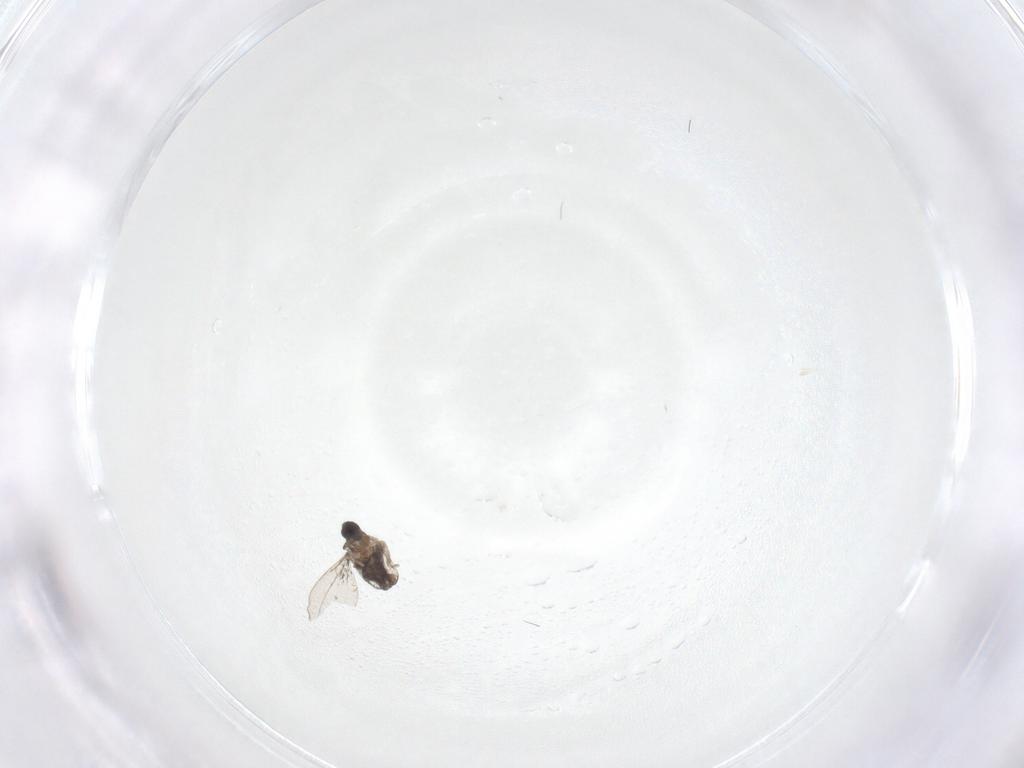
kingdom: Animalia
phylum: Arthropoda
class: Insecta
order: Diptera
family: Cecidomyiidae
